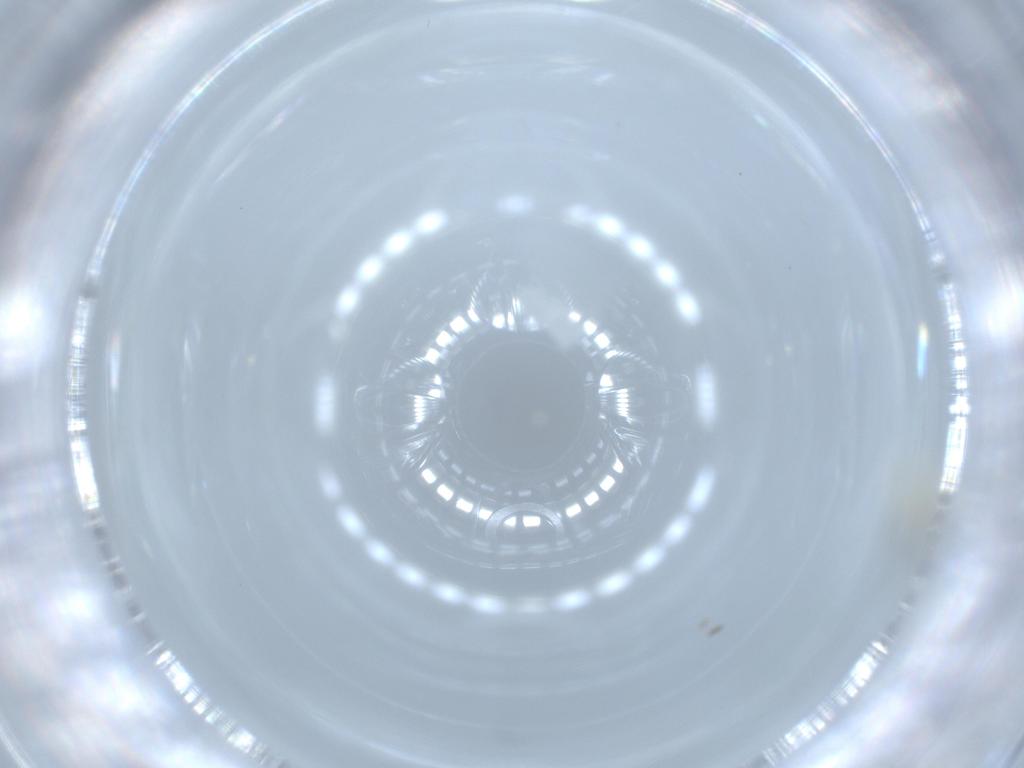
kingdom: Animalia
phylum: Arthropoda
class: Insecta
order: Diptera
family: Cecidomyiidae
